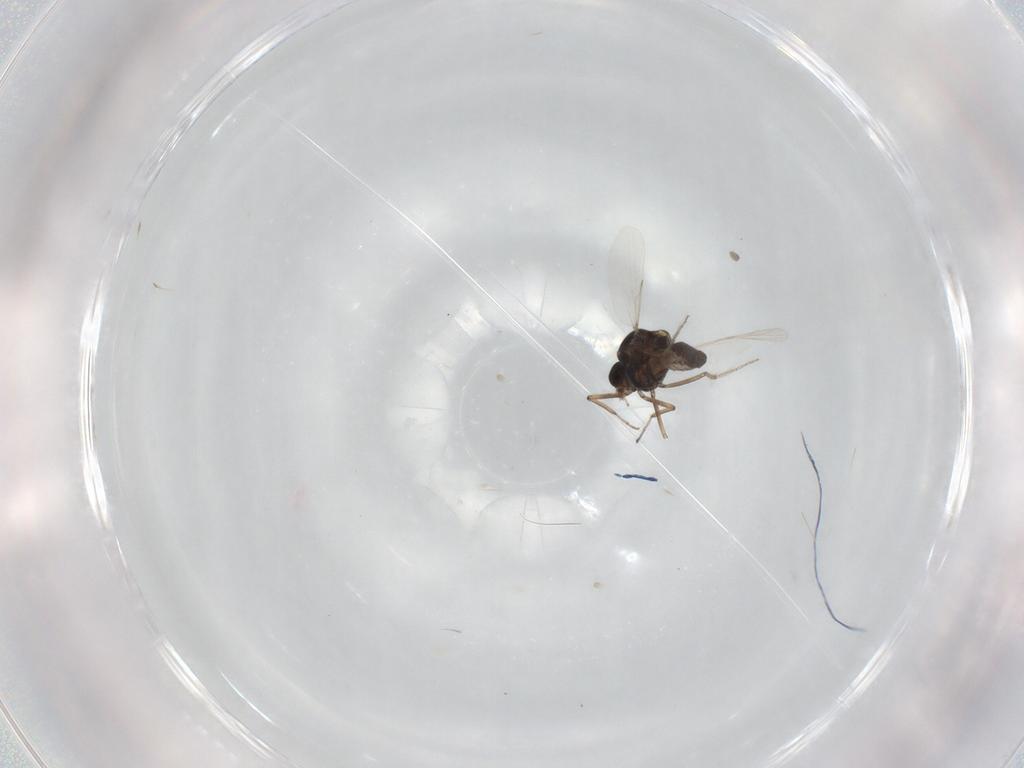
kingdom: Animalia
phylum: Arthropoda
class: Insecta
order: Diptera
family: Ceratopogonidae
